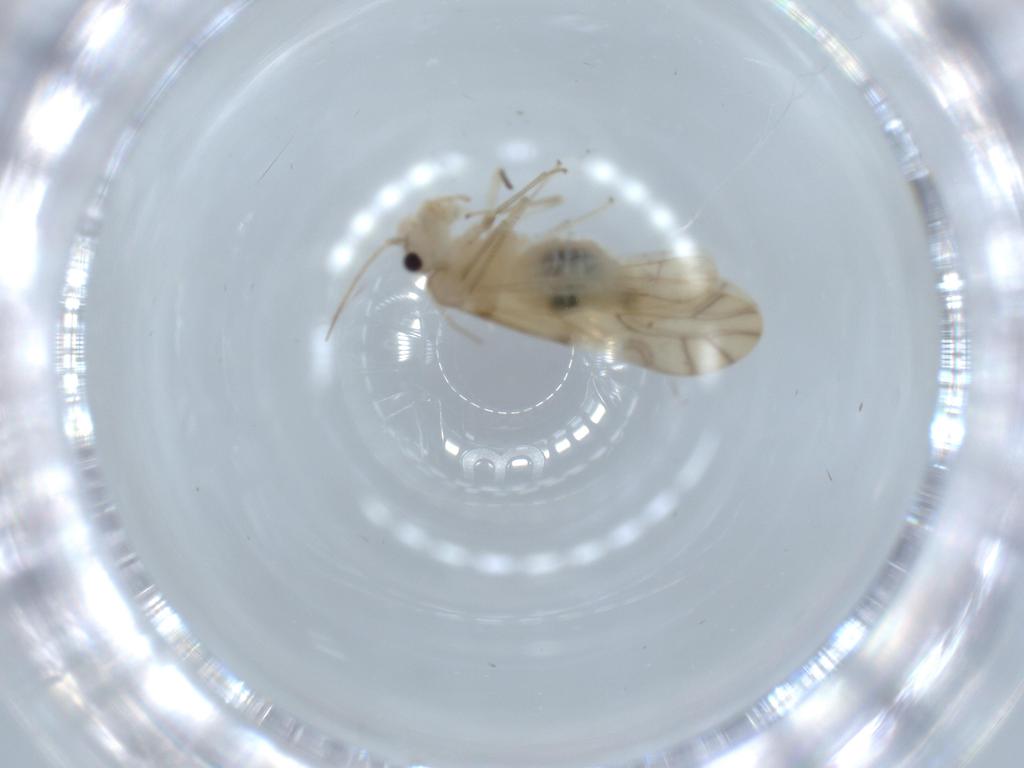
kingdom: Animalia
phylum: Arthropoda
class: Insecta
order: Psocodea
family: Caeciliusidae
